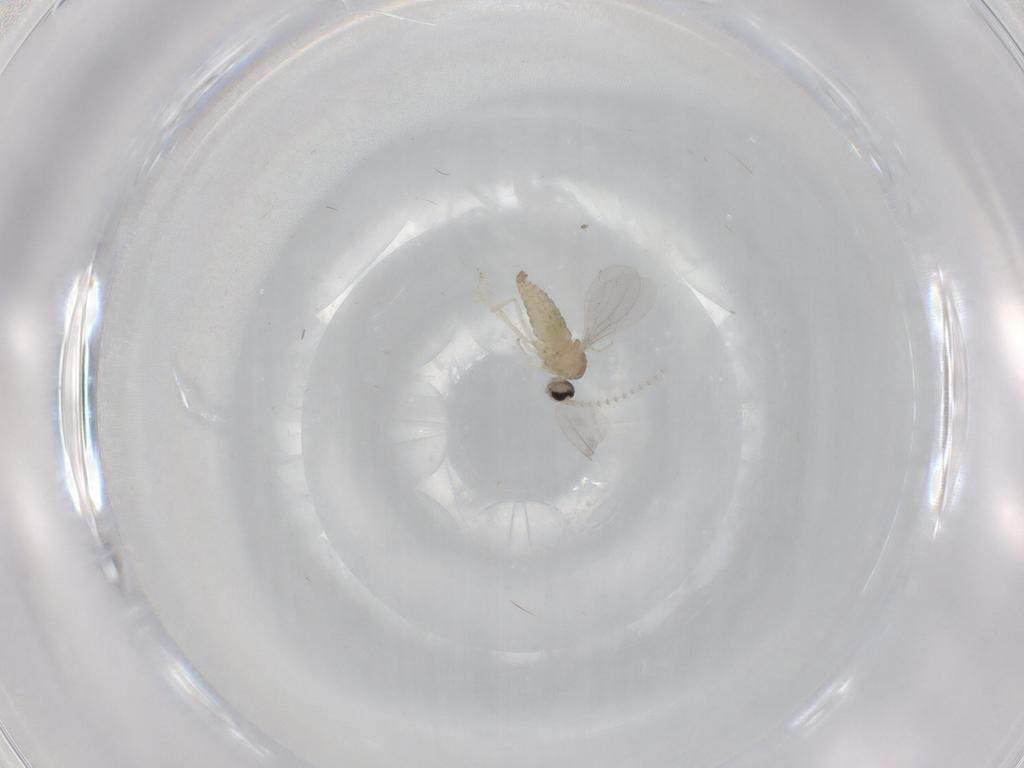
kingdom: Animalia
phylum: Arthropoda
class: Insecta
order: Diptera
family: Cecidomyiidae
